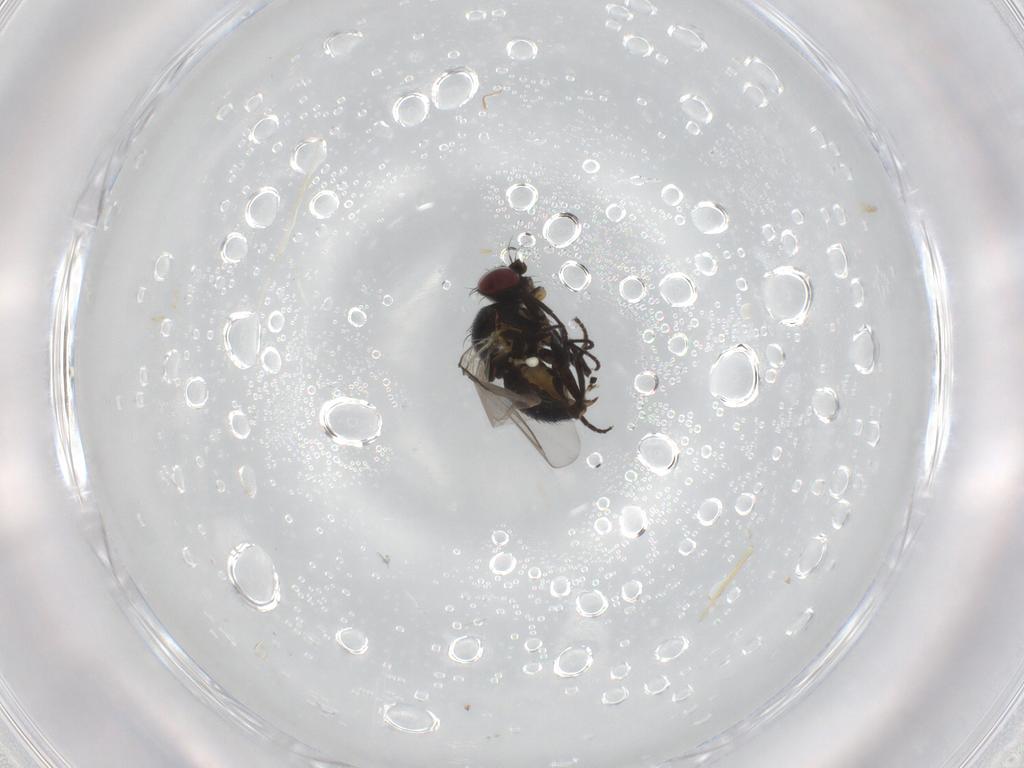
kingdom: Animalia
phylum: Arthropoda
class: Insecta
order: Diptera
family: Agromyzidae
